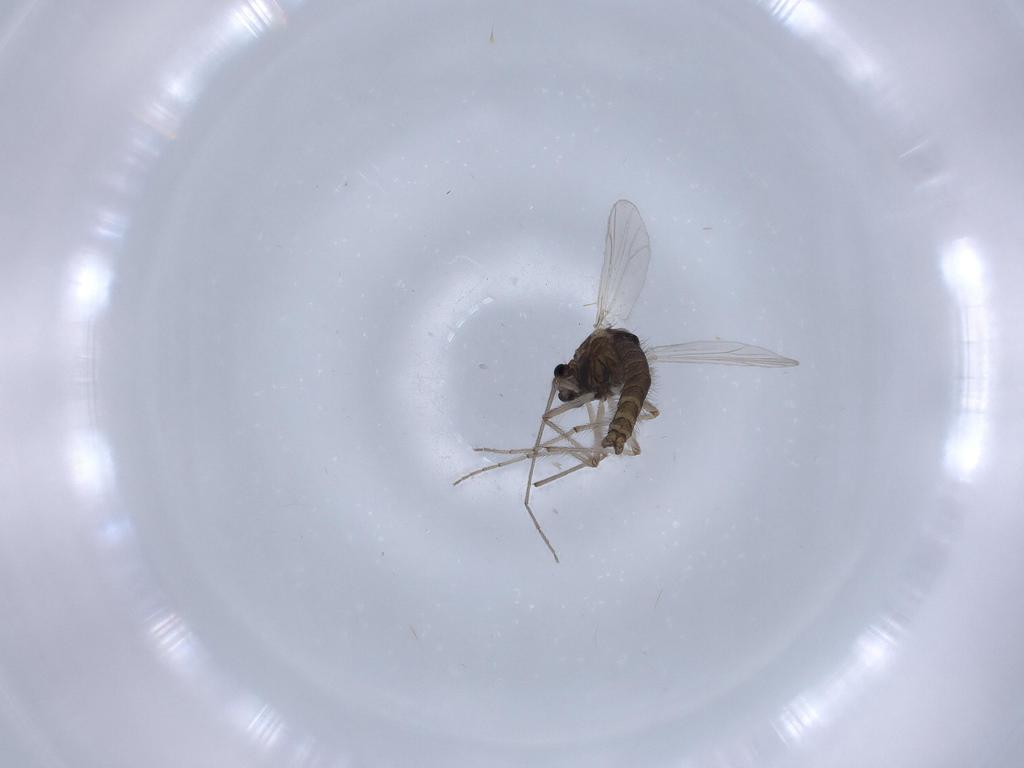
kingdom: Animalia
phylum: Arthropoda
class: Insecta
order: Diptera
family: Chironomidae
